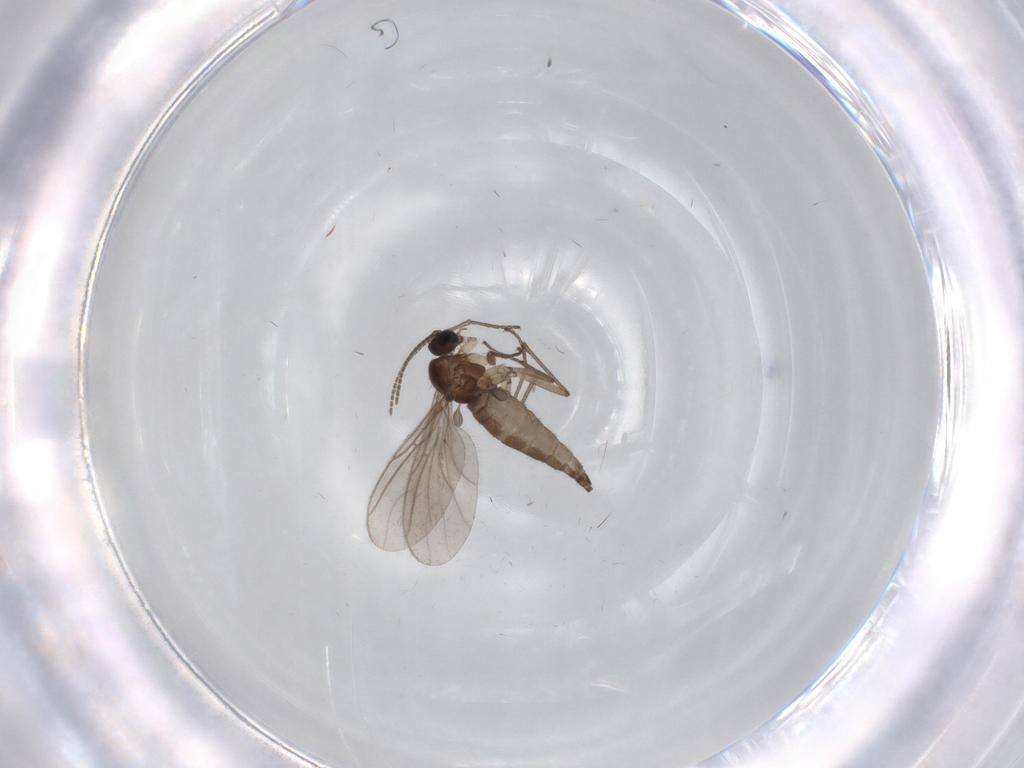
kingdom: Animalia
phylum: Arthropoda
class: Insecta
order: Diptera
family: Sciaridae
